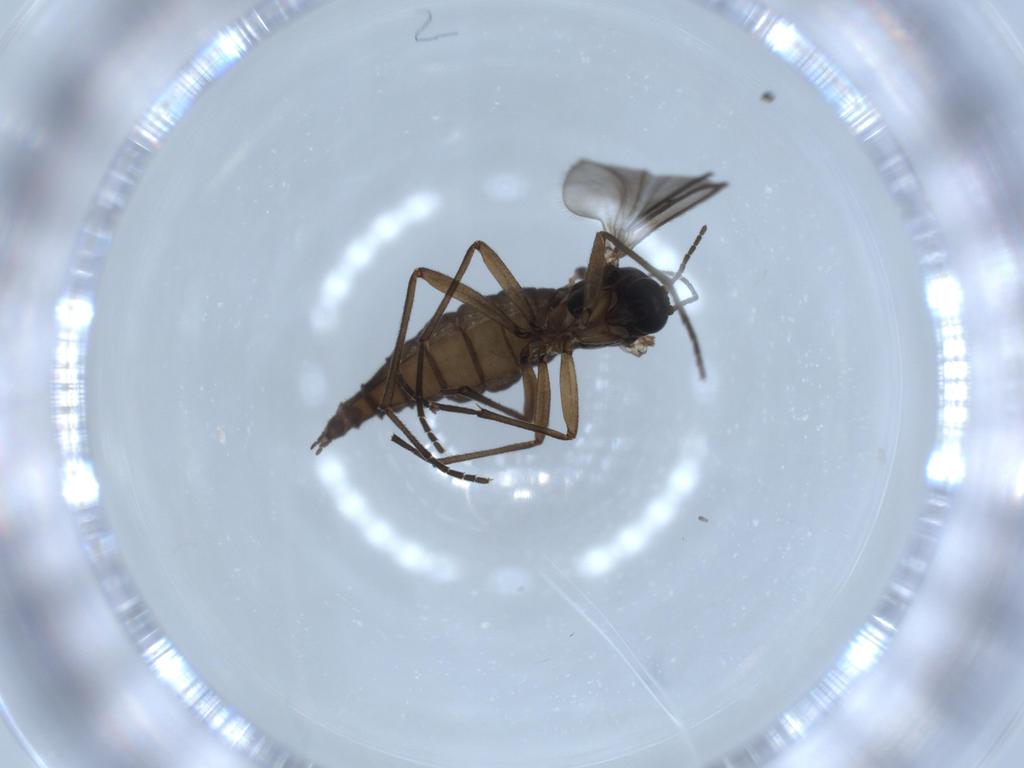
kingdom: Animalia
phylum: Arthropoda
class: Insecta
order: Diptera
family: Sciaridae
